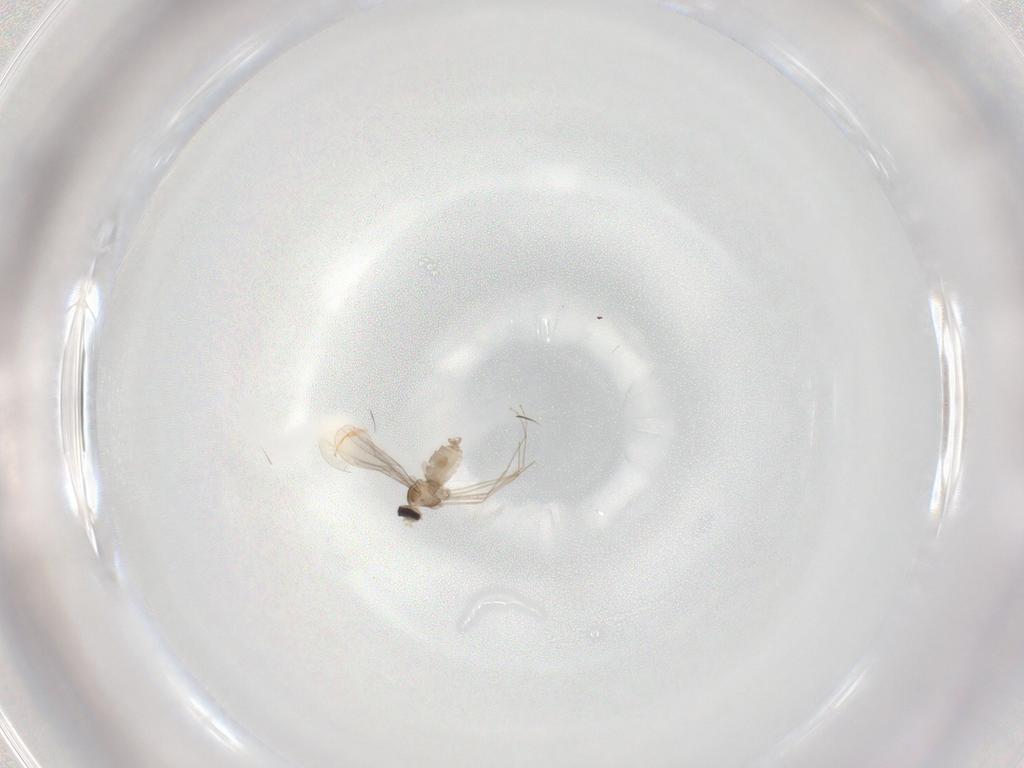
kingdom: Animalia
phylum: Arthropoda
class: Insecta
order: Diptera
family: Cecidomyiidae
